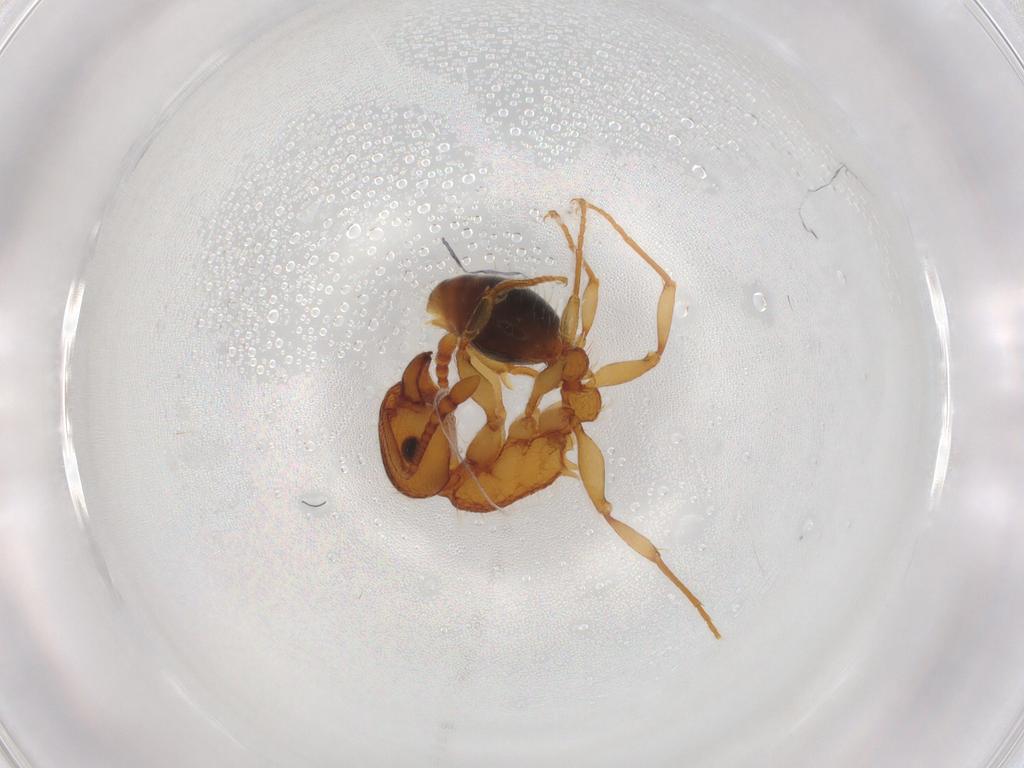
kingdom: Animalia
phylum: Arthropoda
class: Insecta
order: Hymenoptera
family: Formicidae
